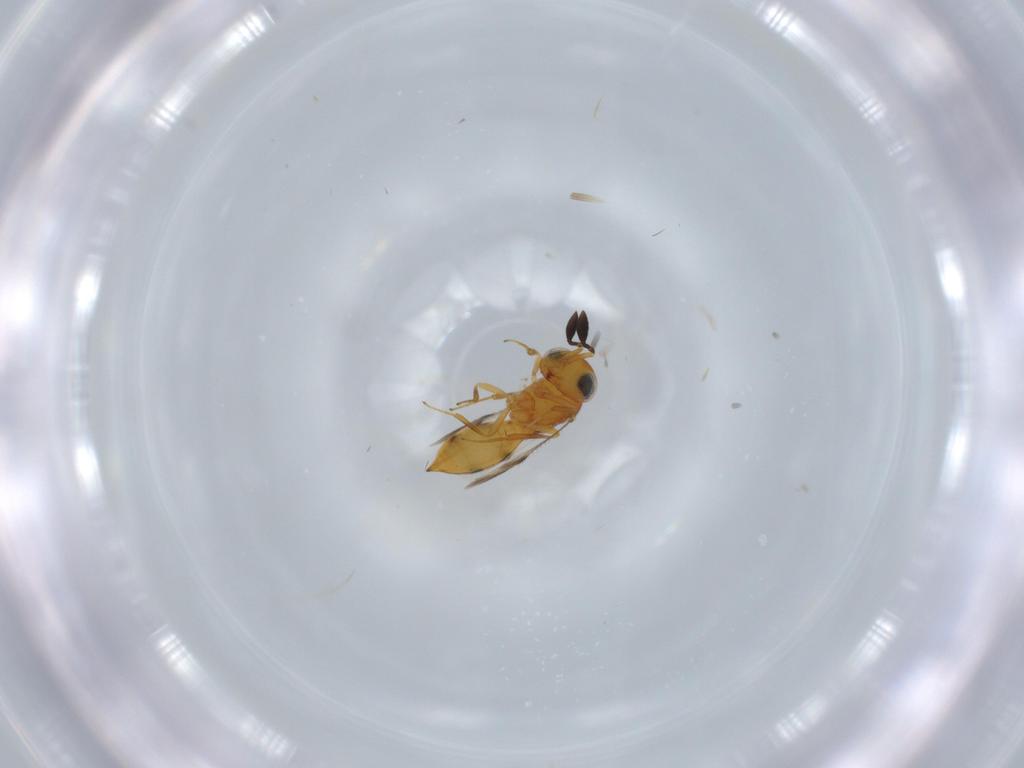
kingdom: Animalia
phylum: Arthropoda
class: Insecta
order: Hymenoptera
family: Scelionidae
